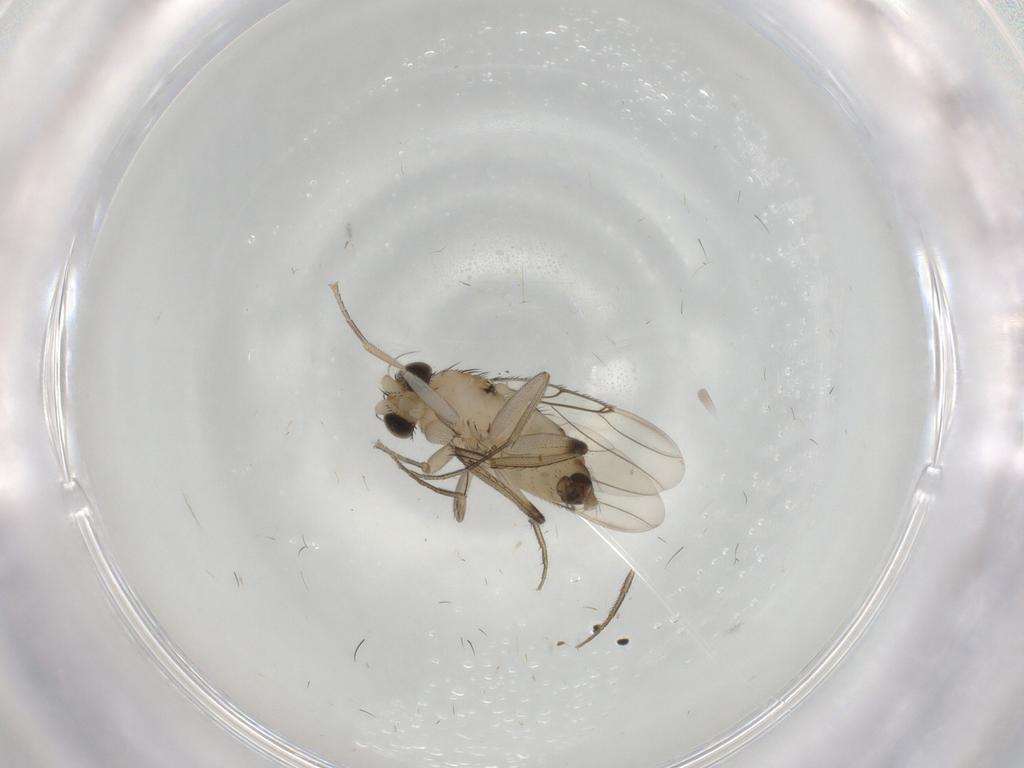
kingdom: Animalia
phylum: Arthropoda
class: Insecta
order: Diptera
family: Phoridae
